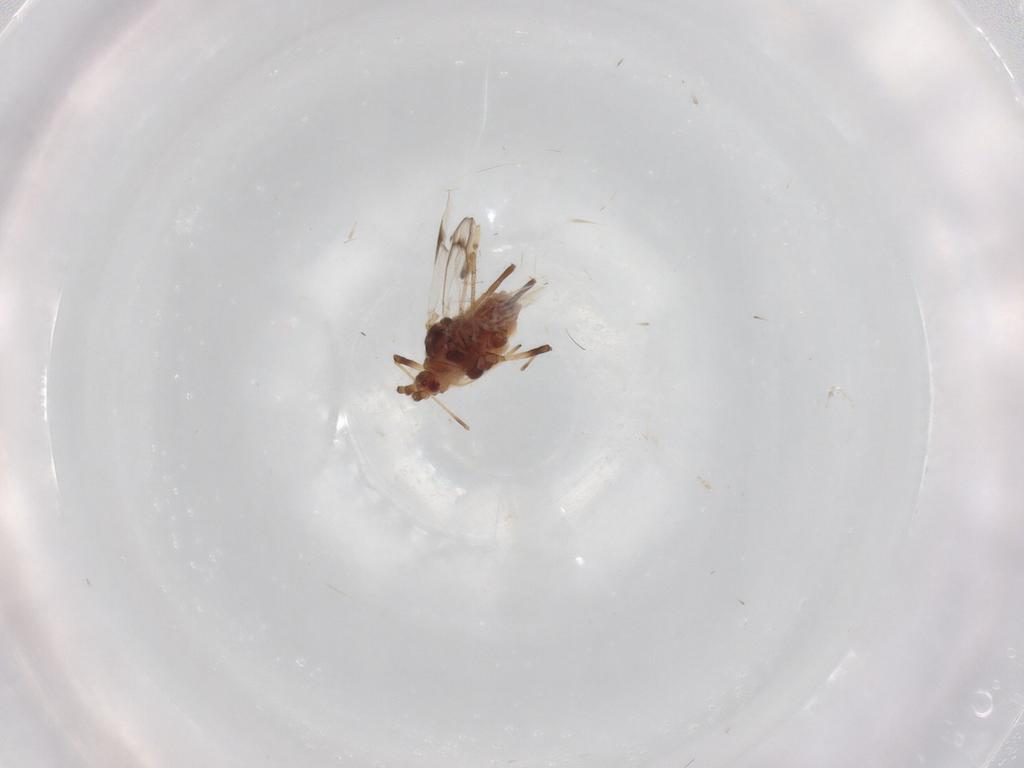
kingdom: Animalia
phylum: Arthropoda
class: Insecta
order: Hemiptera
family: Aphididae
